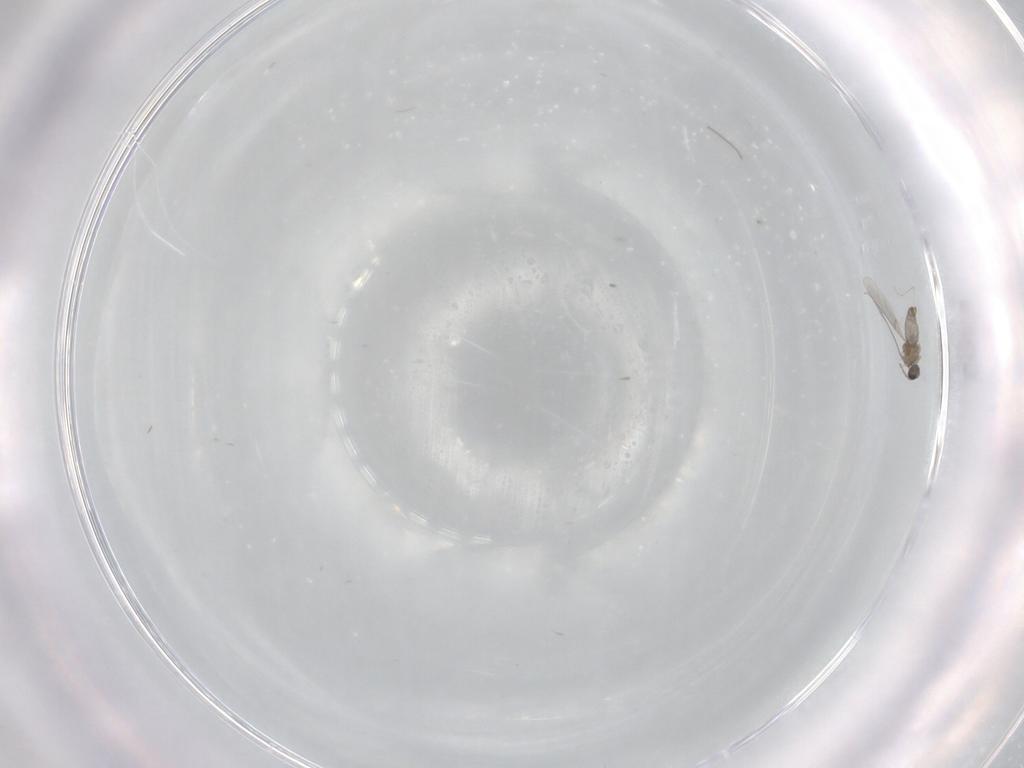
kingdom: Animalia
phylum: Arthropoda
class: Insecta
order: Diptera
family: Cecidomyiidae
